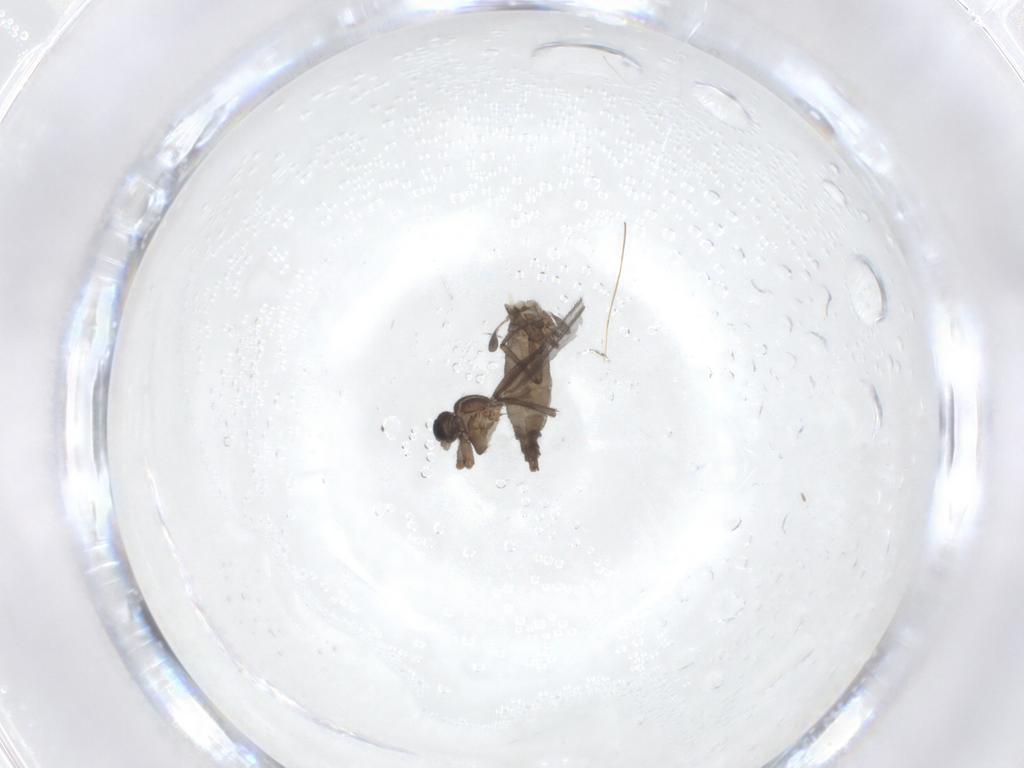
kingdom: Animalia
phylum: Arthropoda
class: Insecta
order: Diptera
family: Sciaridae
